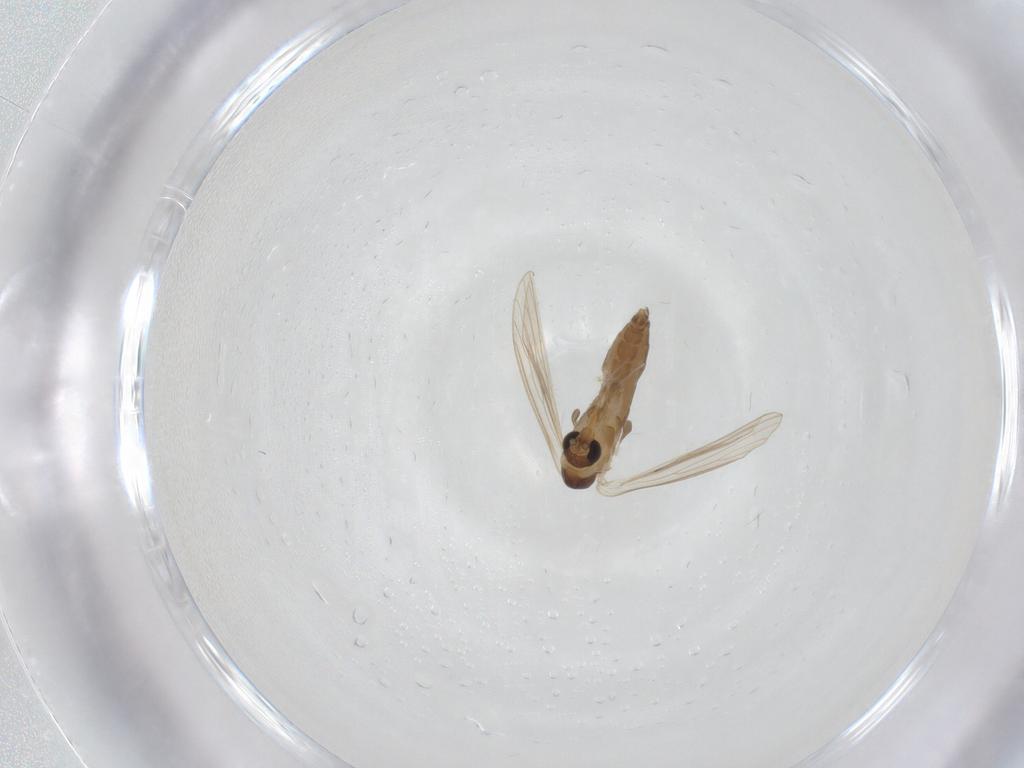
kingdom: Animalia
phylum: Arthropoda
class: Insecta
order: Diptera
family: Psychodidae
